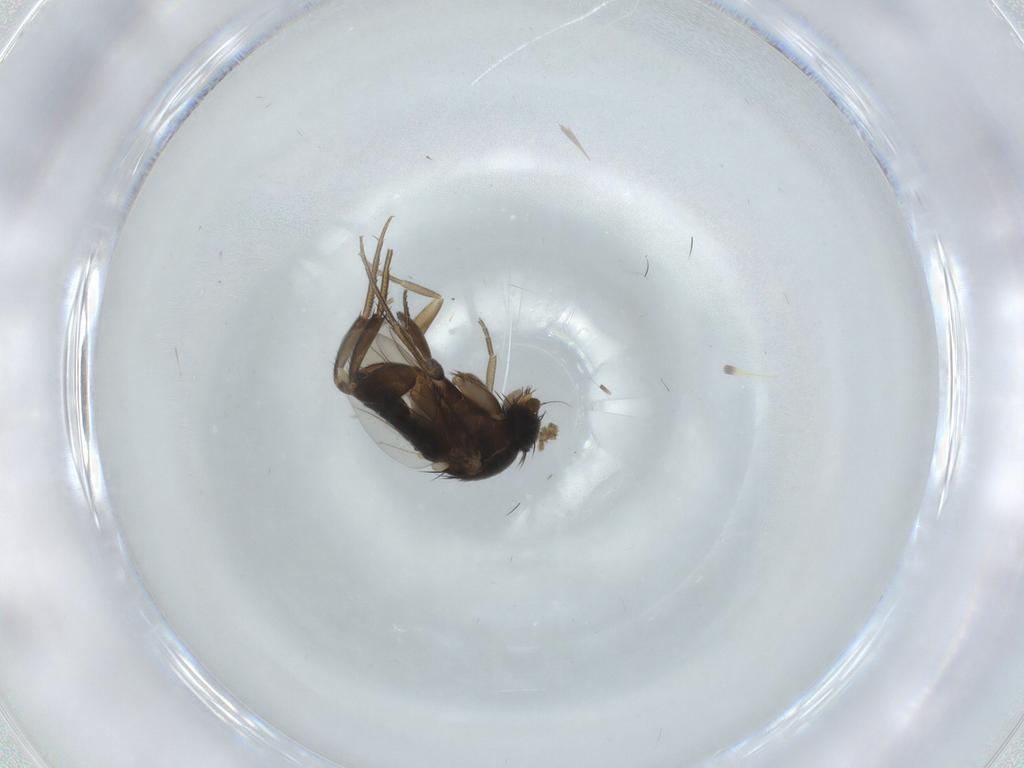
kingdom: Animalia
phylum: Arthropoda
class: Insecta
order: Diptera
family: Phoridae
